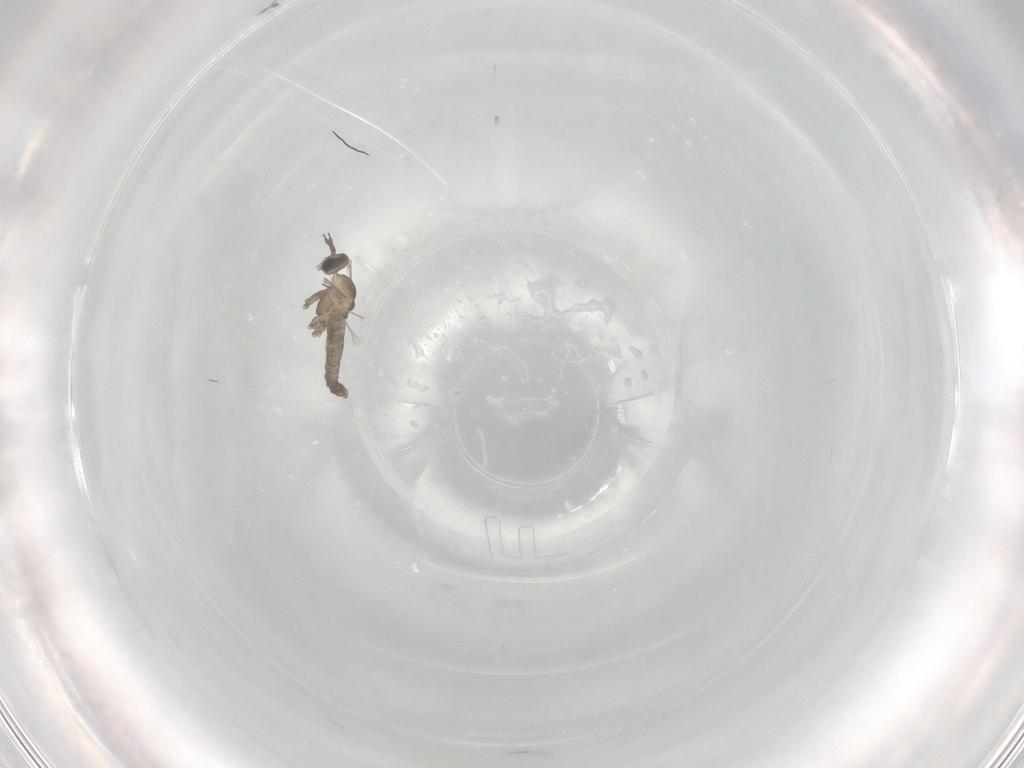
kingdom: Animalia
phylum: Arthropoda
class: Insecta
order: Diptera
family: Cecidomyiidae
